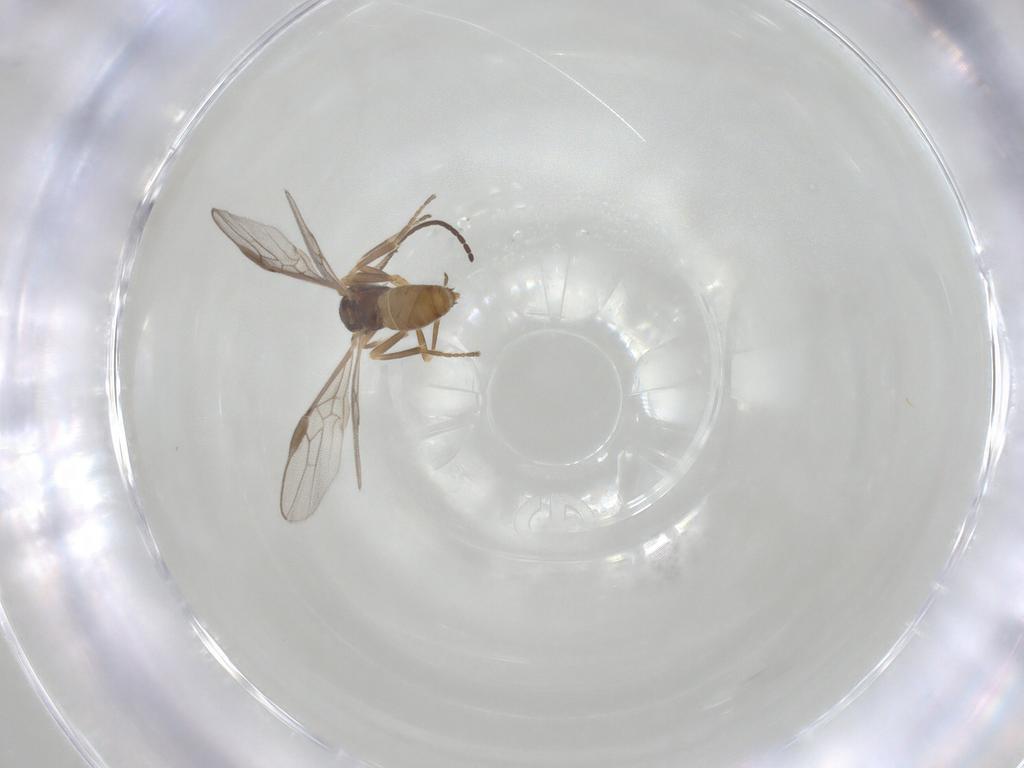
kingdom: Animalia
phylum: Arthropoda
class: Insecta
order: Hymenoptera
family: Braconidae
